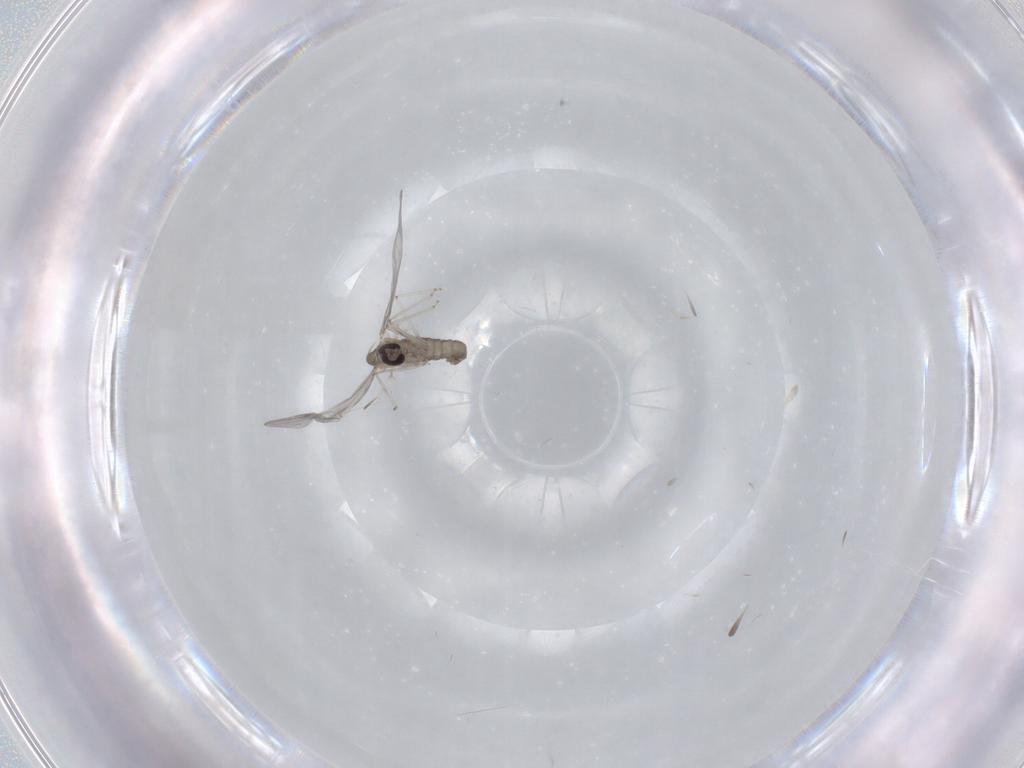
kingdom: Animalia
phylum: Arthropoda
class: Insecta
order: Diptera
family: Cecidomyiidae
